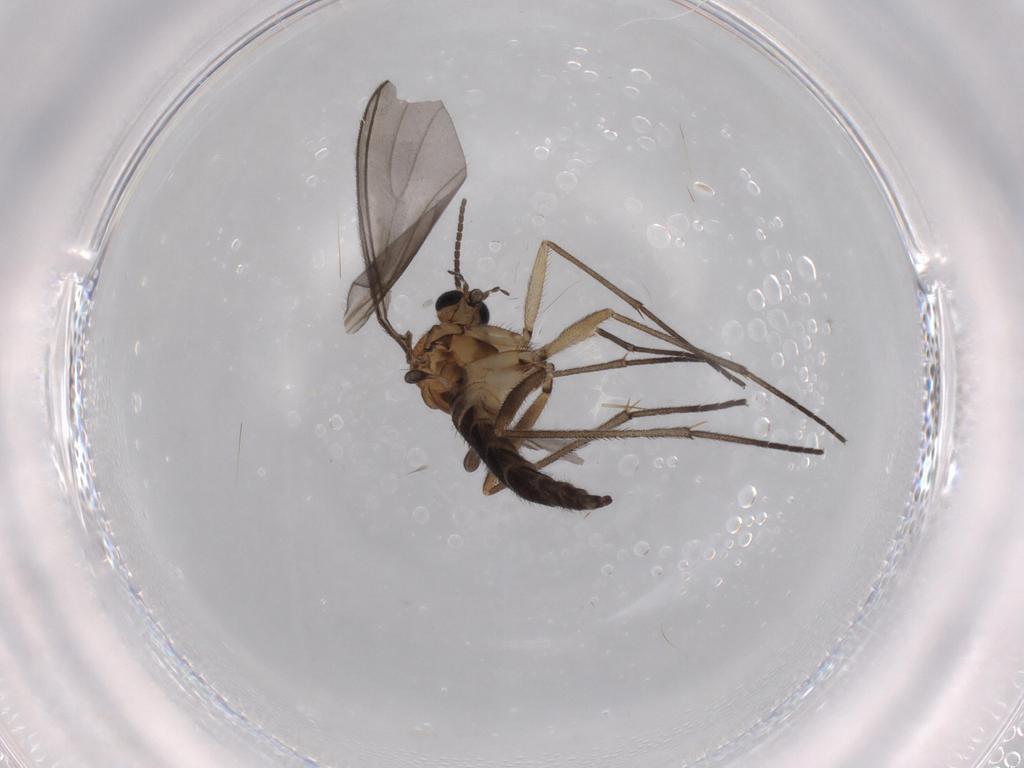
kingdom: Animalia
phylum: Arthropoda
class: Insecta
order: Diptera
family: Sciaridae
